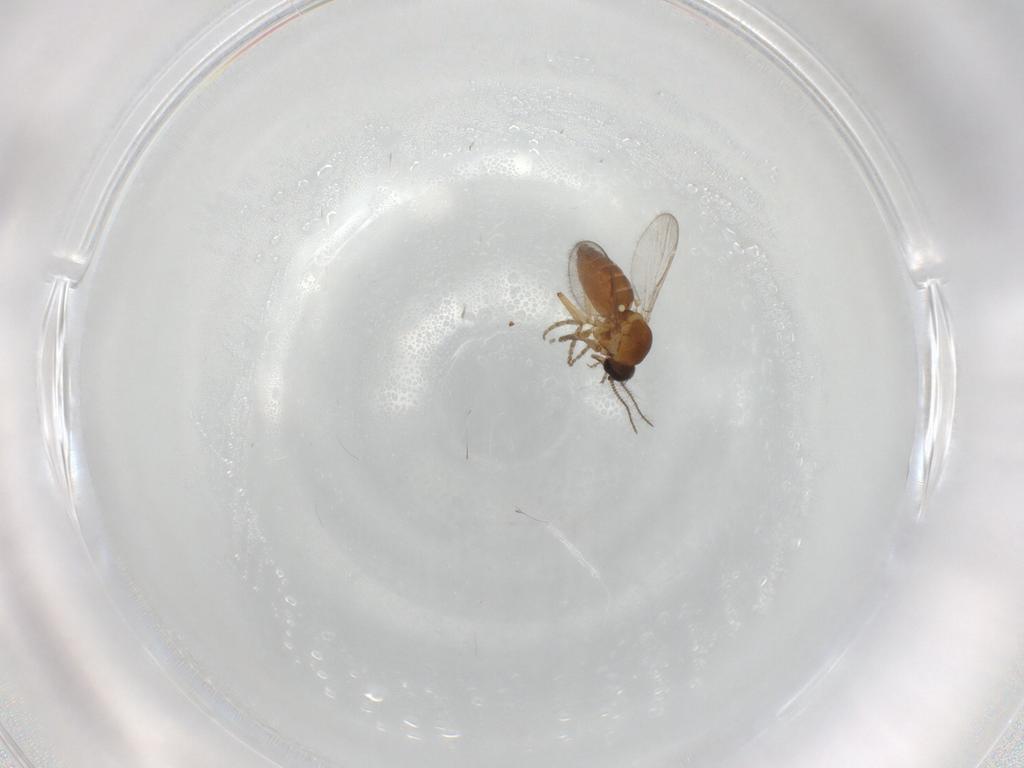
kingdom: Animalia
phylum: Arthropoda
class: Insecta
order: Diptera
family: Ceratopogonidae
